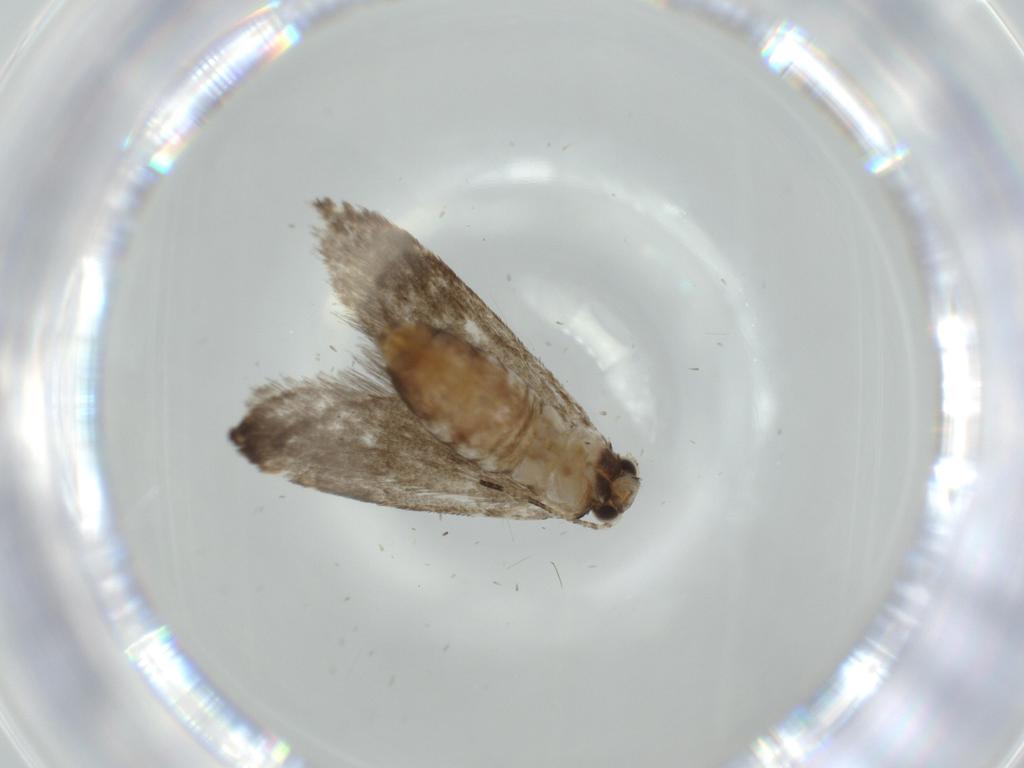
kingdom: Animalia
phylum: Arthropoda
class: Insecta
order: Lepidoptera
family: Tineidae
